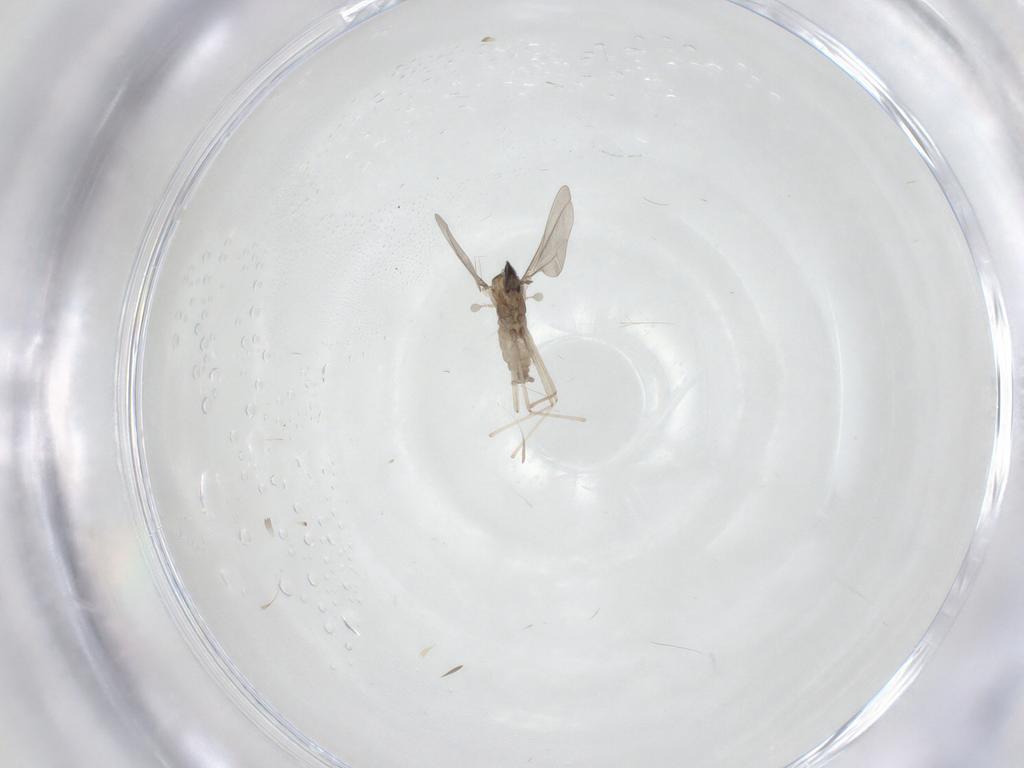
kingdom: Animalia
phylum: Arthropoda
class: Insecta
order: Diptera
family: Cecidomyiidae
